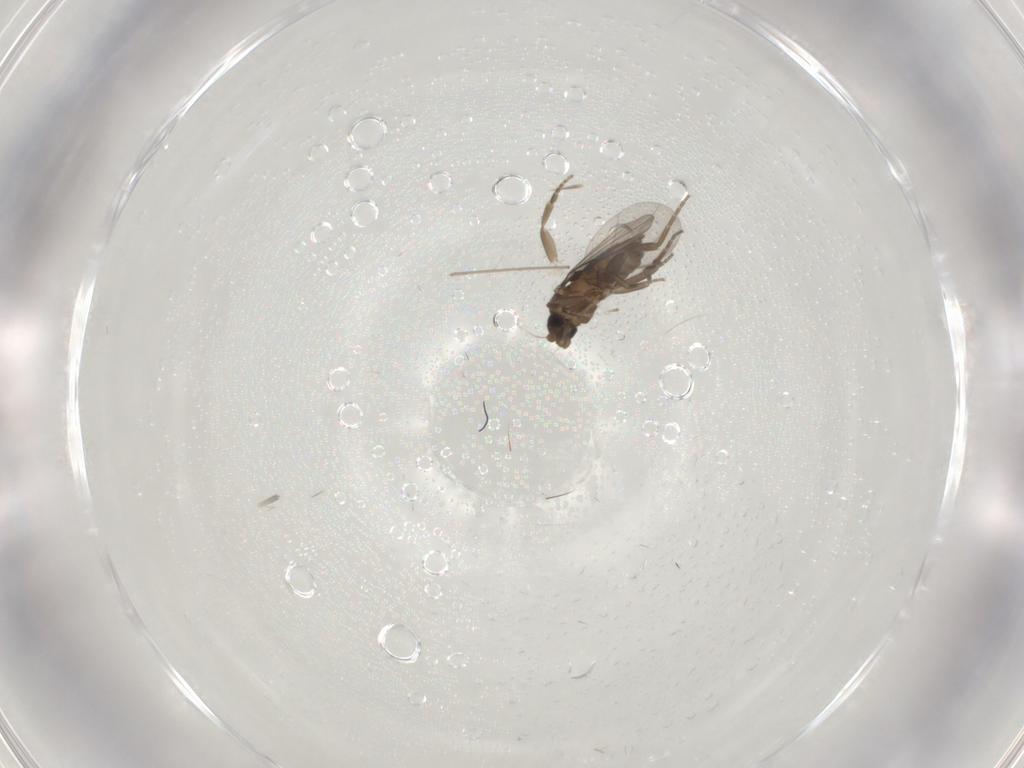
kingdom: Animalia
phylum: Arthropoda
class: Insecta
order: Diptera
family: Phoridae
